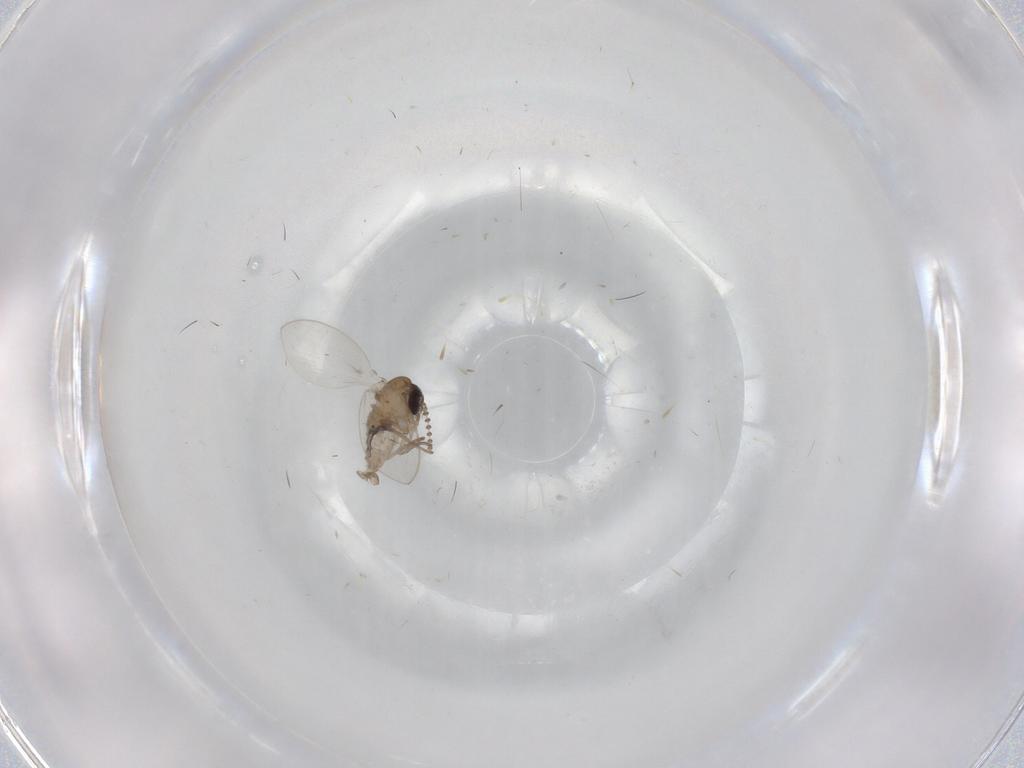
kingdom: Animalia
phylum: Arthropoda
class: Insecta
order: Diptera
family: Psychodidae
